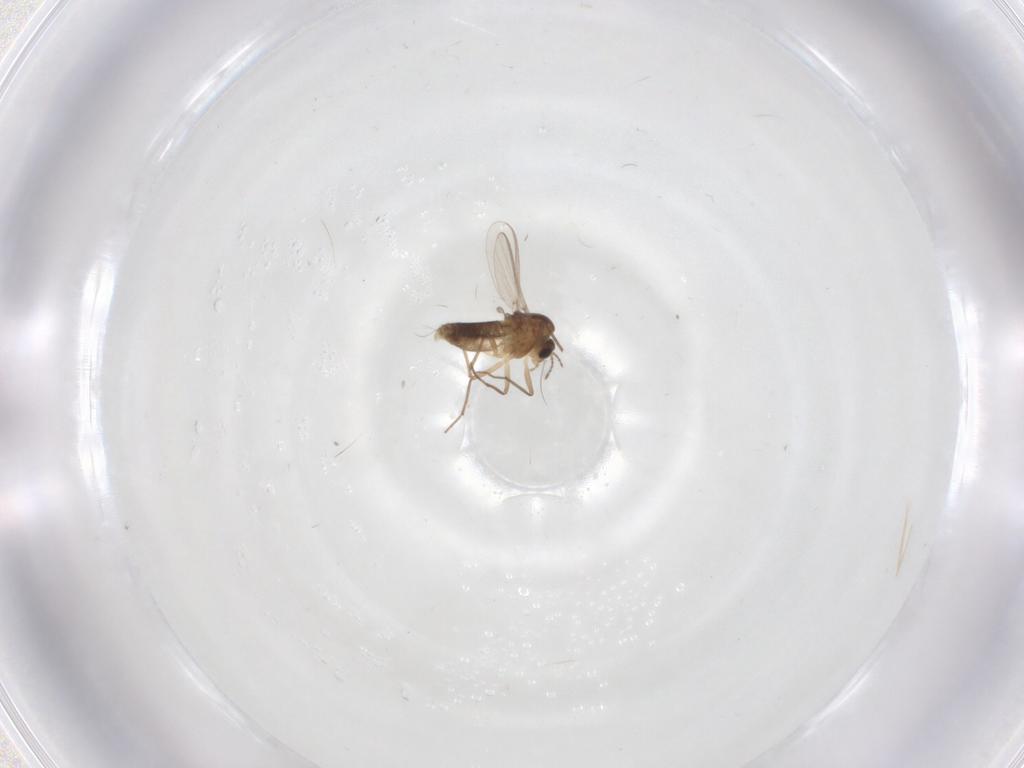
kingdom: Animalia
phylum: Arthropoda
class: Insecta
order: Diptera
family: Chironomidae
